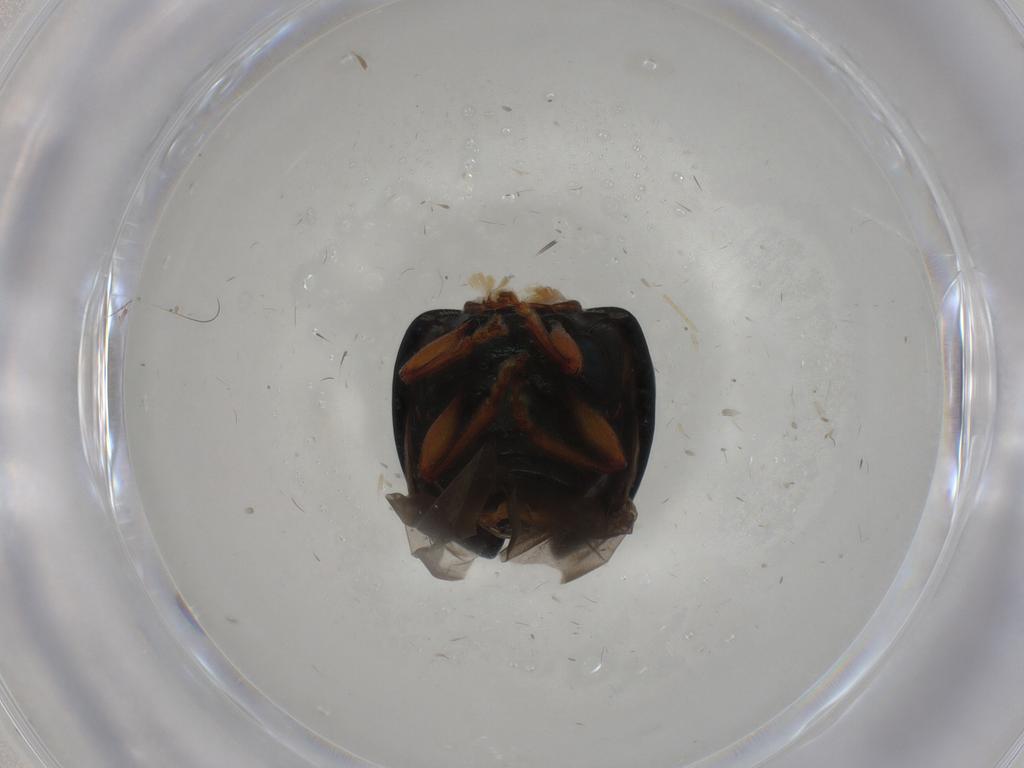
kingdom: Animalia
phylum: Arthropoda
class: Insecta
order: Coleoptera
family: Chrysomelidae
